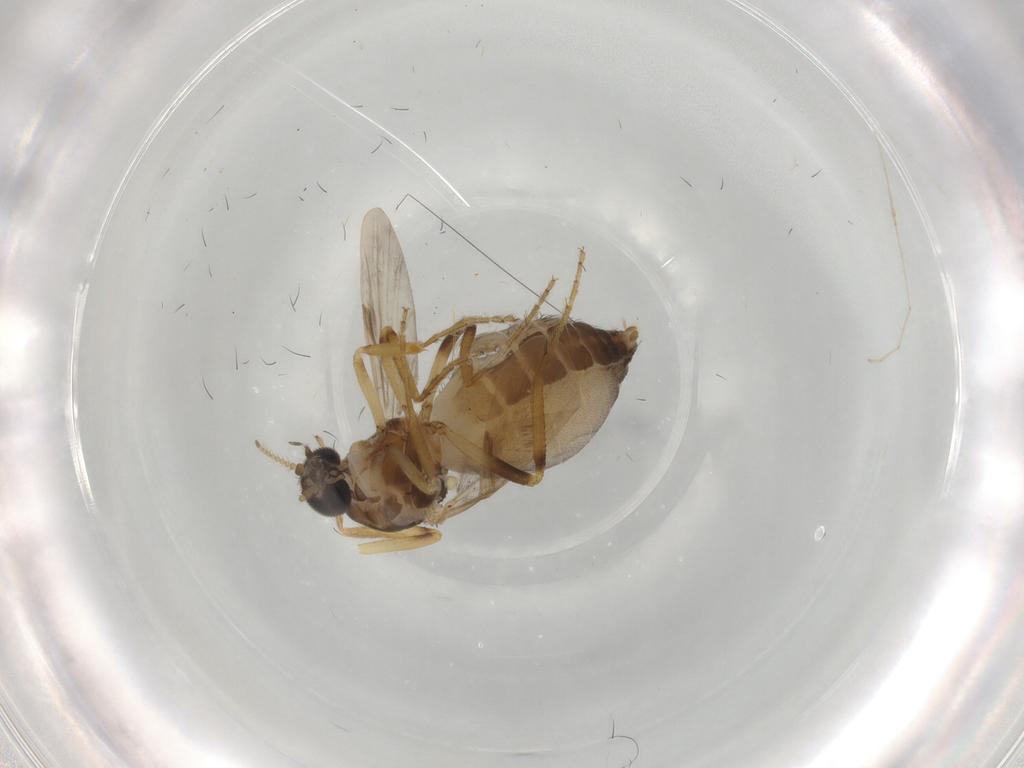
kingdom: Animalia
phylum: Arthropoda
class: Insecta
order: Diptera
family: Ceratopogonidae
